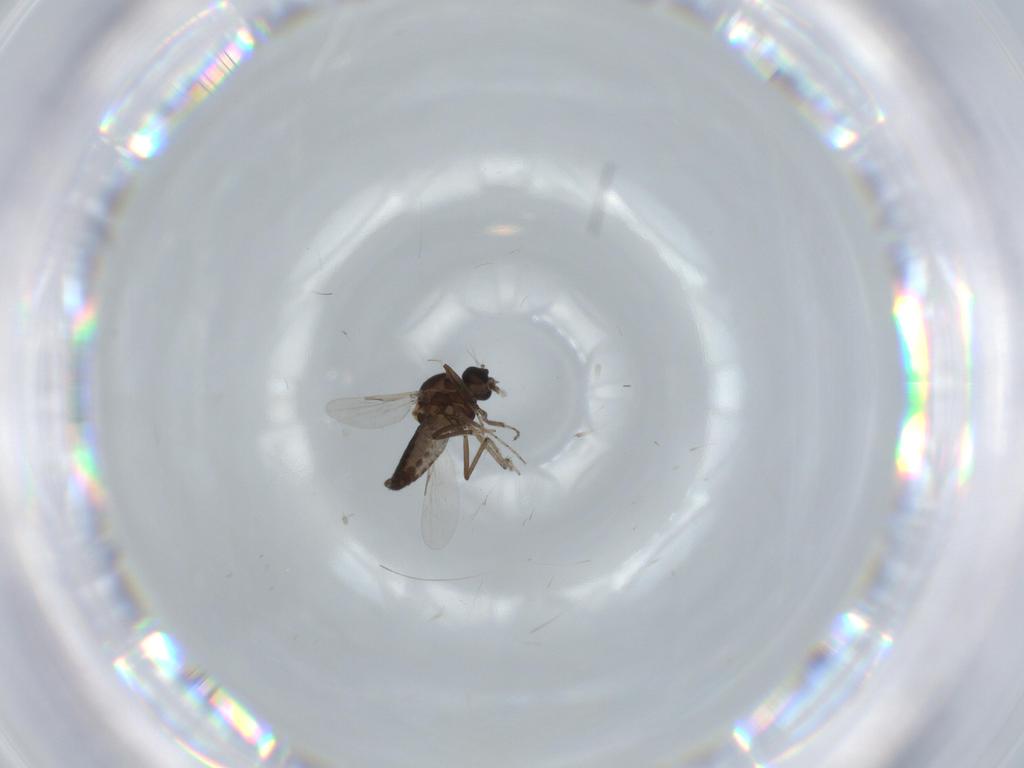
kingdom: Animalia
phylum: Arthropoda
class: Insecta
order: Diptera
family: Ceratopogonidae
